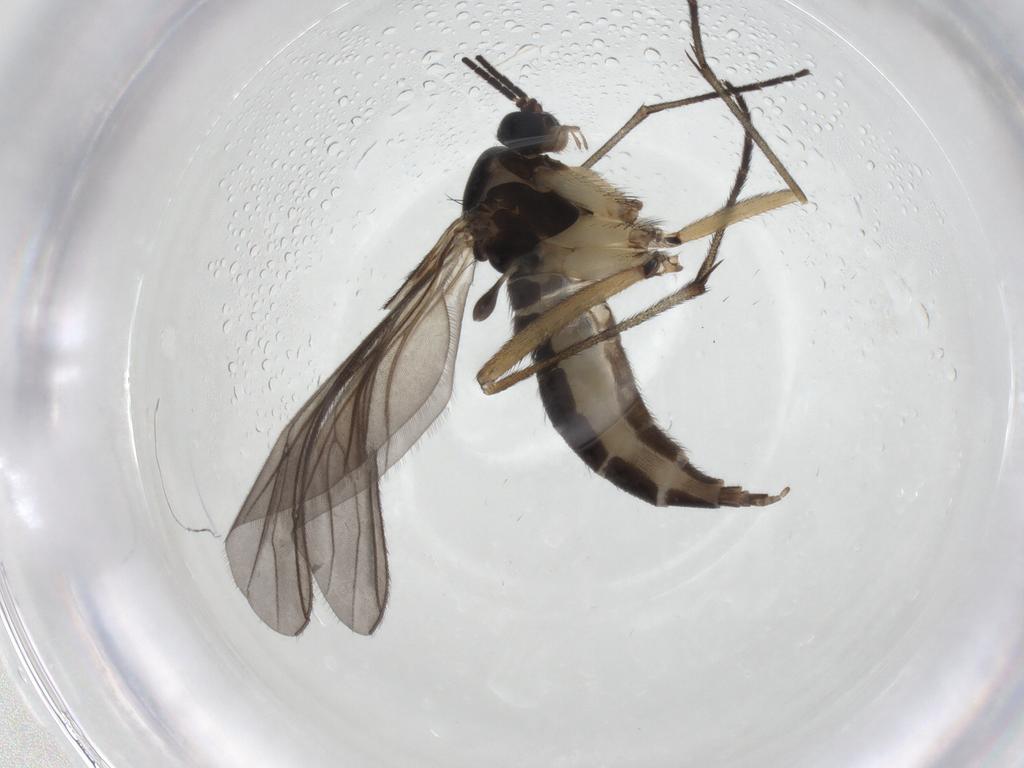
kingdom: Animalia
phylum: Arthropoda
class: Insecta
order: Diptera
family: Sciaridae
